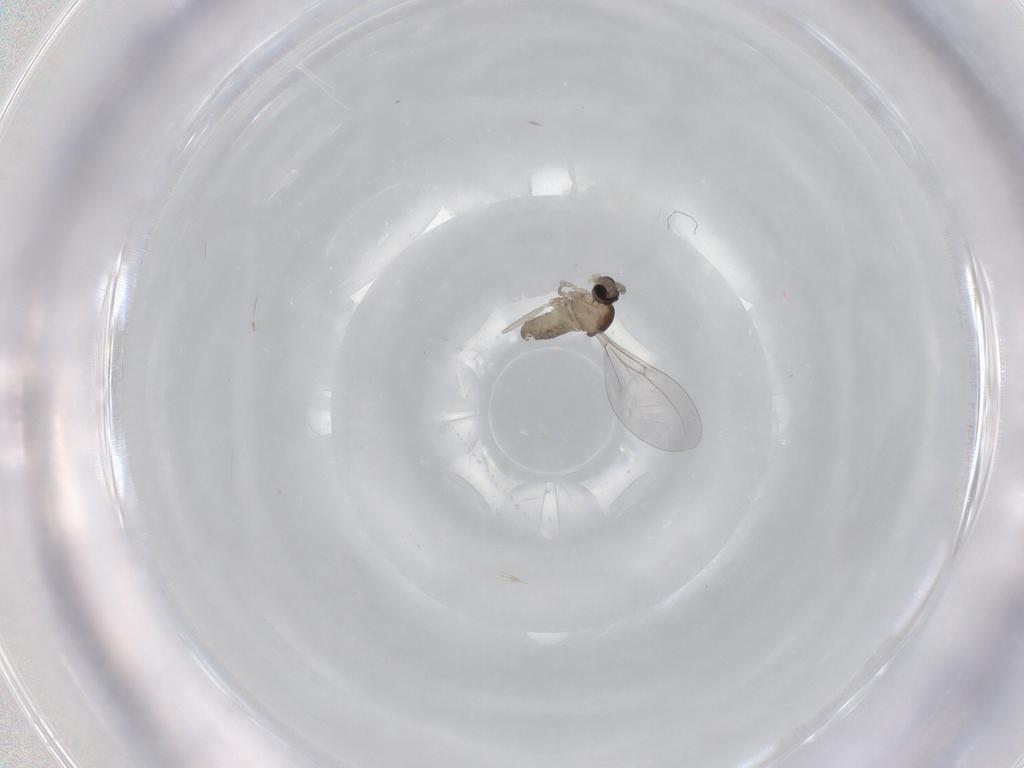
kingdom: Animalia
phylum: Arthropoda
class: Insecta
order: Diptera
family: Cecidomyiidae
